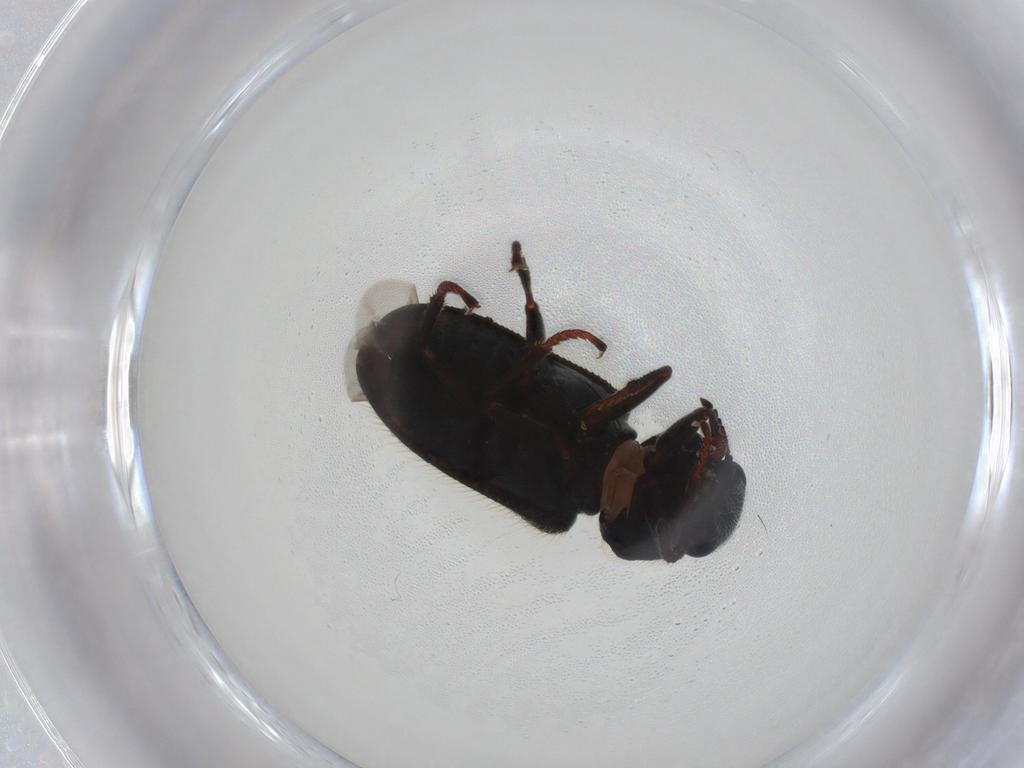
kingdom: Animalia
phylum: Arthropoda
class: Insecta
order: Coleoptera
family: Dasytidae
